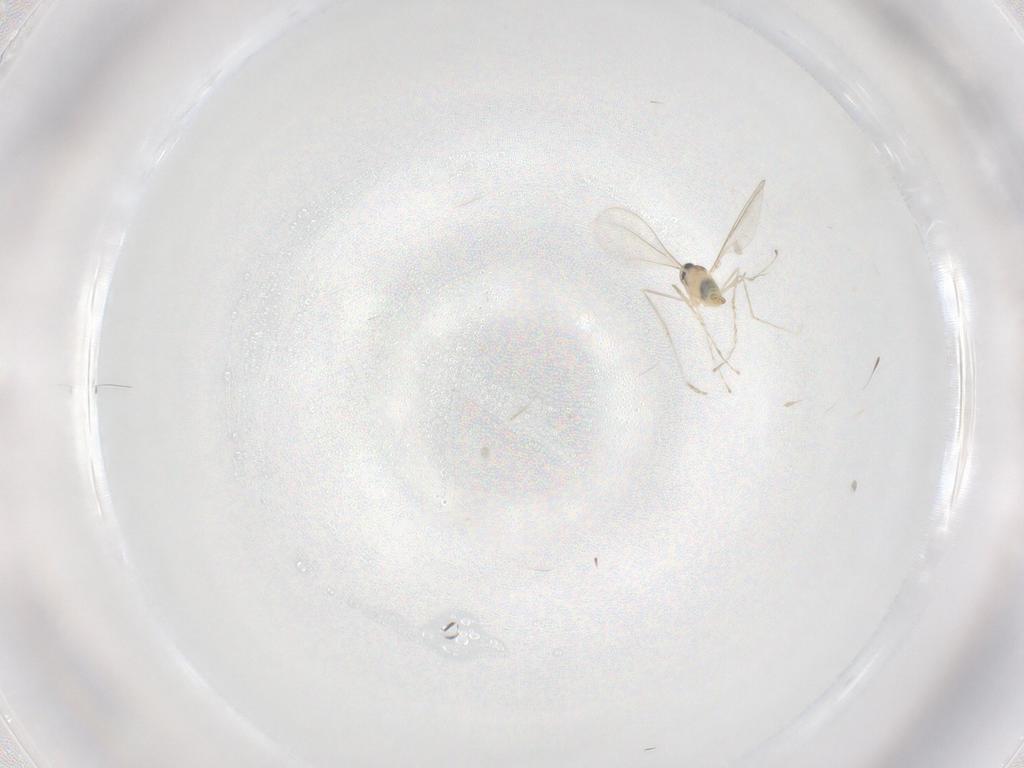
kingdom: Animalia
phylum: Arthropoda
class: Insecta
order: Diptera
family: Cecidomyiidae
